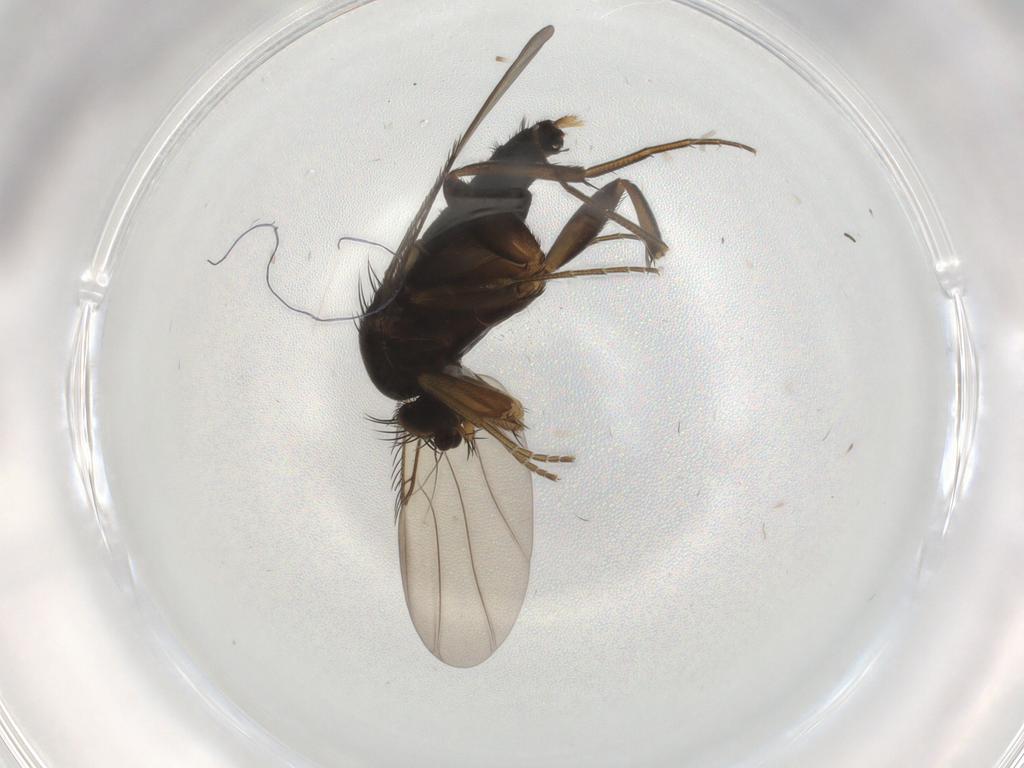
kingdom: Animalia
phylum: Arthropoda
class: Insecta
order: Diptera
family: Phoridae
